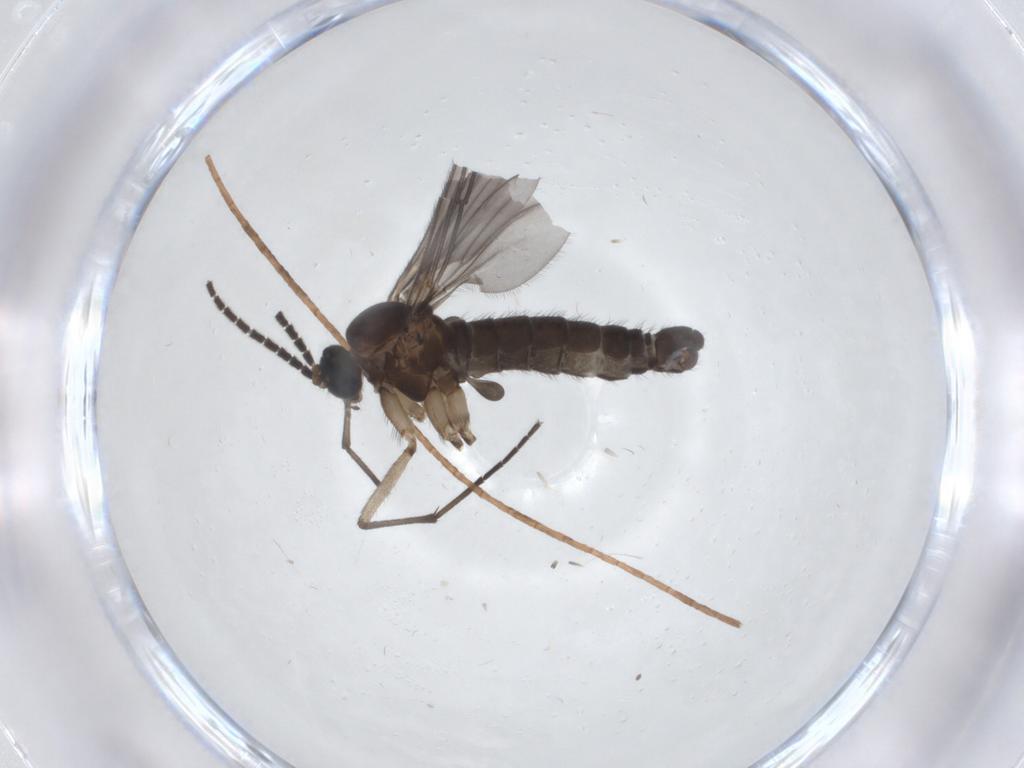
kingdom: Animalia
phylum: Arthropoda
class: Insecta
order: Diptera
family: Sciaridae
